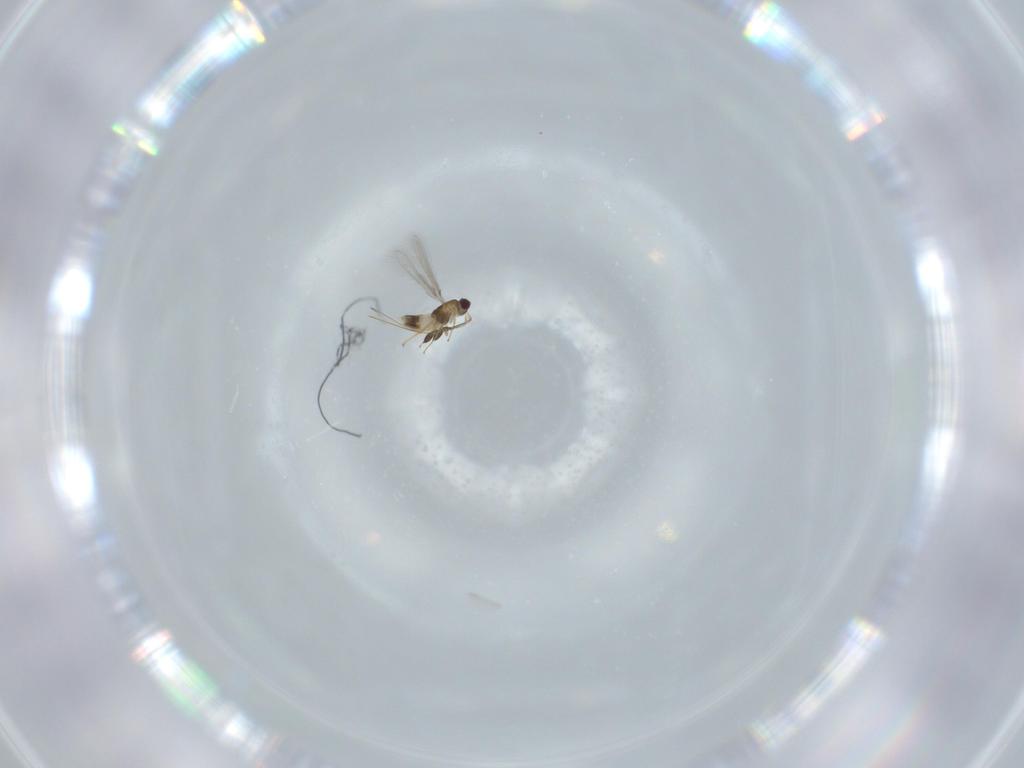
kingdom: Animalia
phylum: Arthropoda
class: Insecta
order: Hymenoptera
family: Mymaridae
